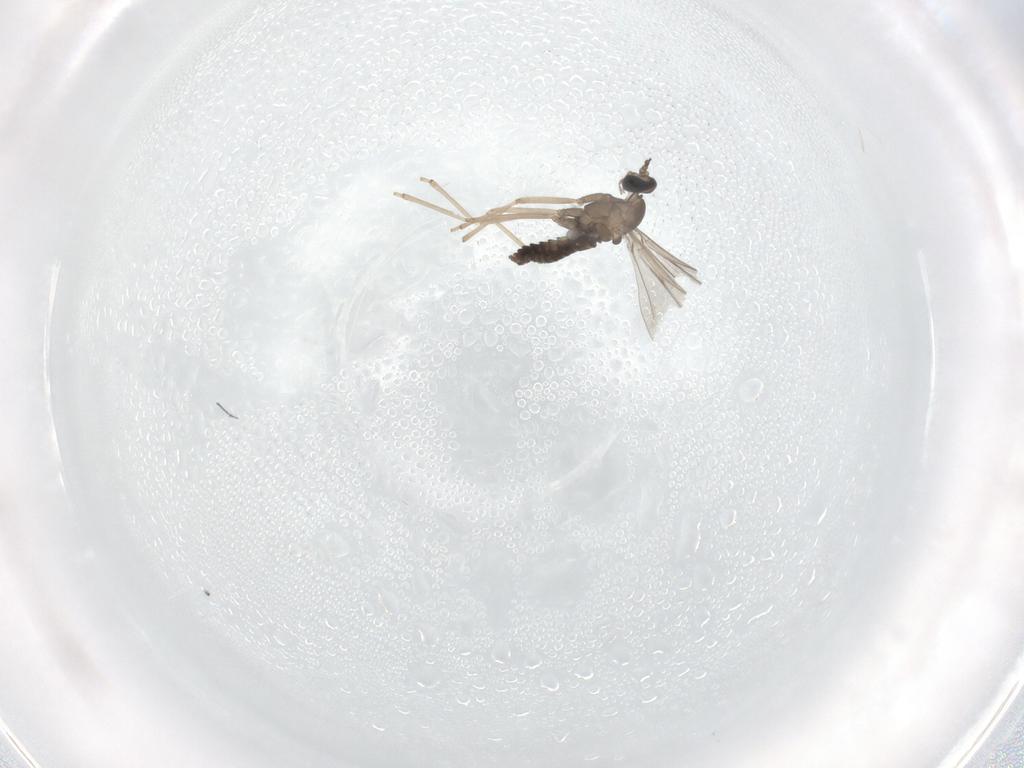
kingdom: Animalia
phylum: Arthropoda
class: Insecta
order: Diptera
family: Cecidomyiidae
